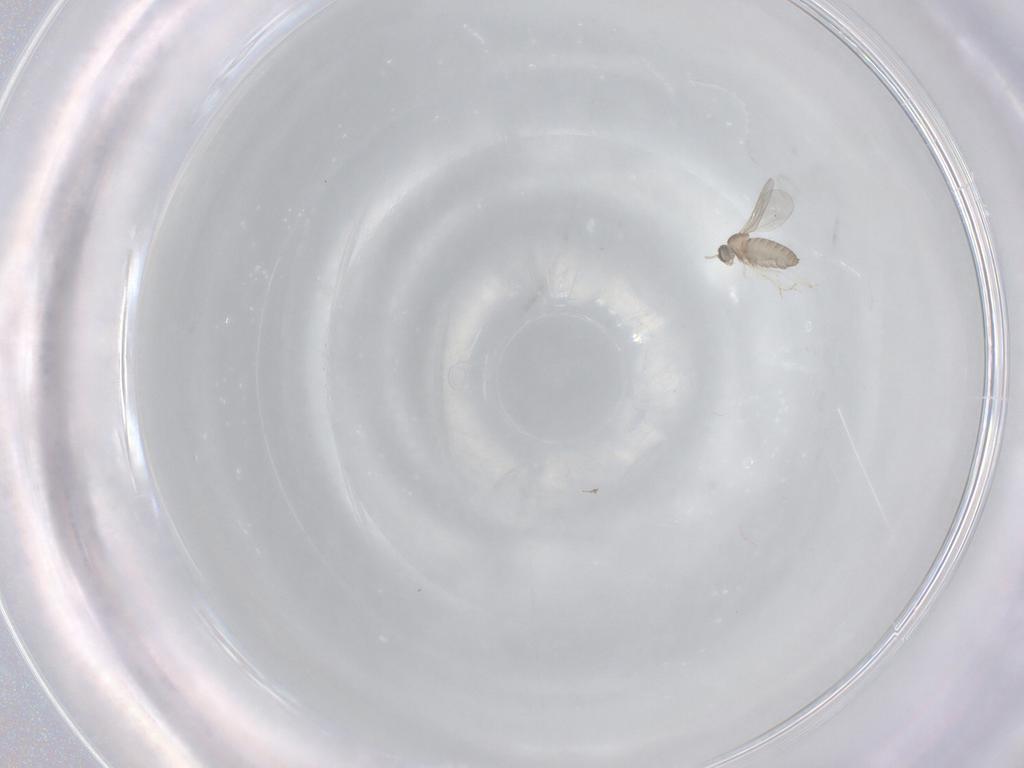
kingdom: Animalia
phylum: Arthropoda
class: Insecta
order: Diptera
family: Cecidomyiidae
